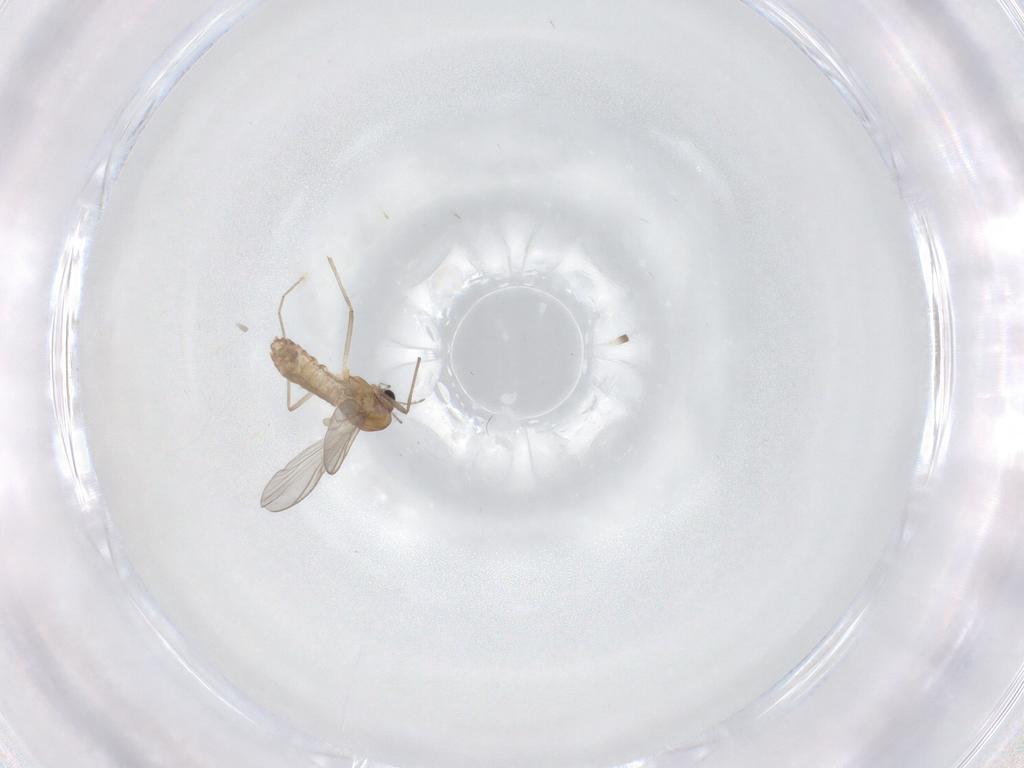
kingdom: Animalia
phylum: Arthropoda
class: Insecta
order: Diptera
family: Chironomidae
